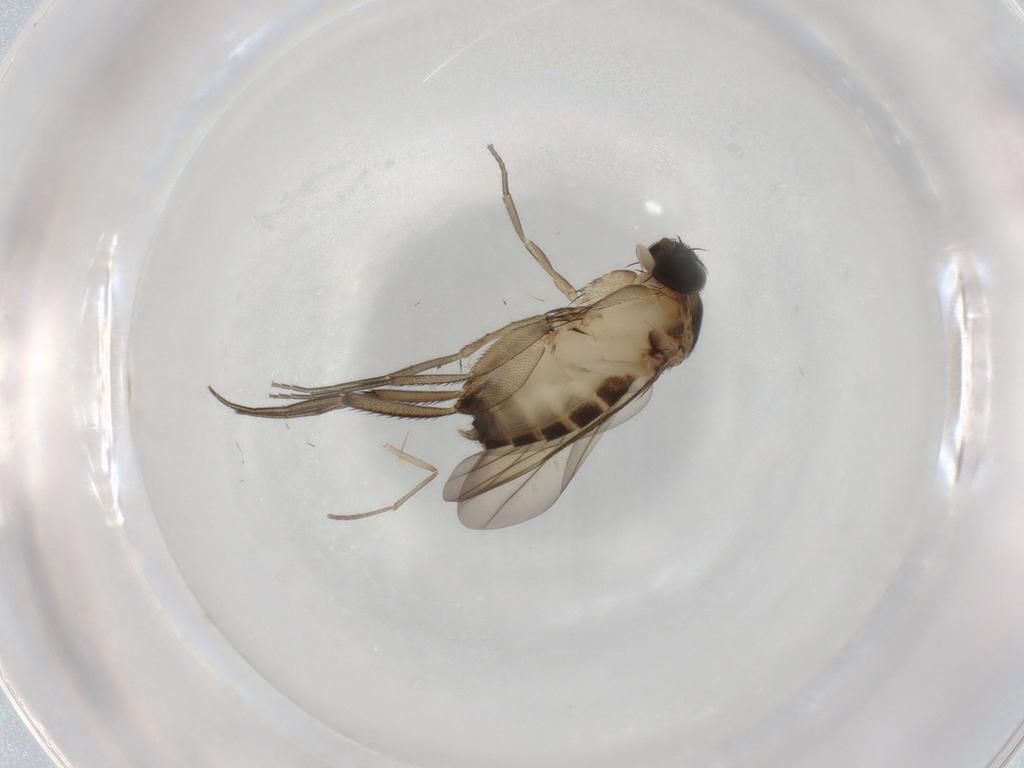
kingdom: Animalia
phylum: Arthropoda
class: Insecta
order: Diptera
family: Phoridae
